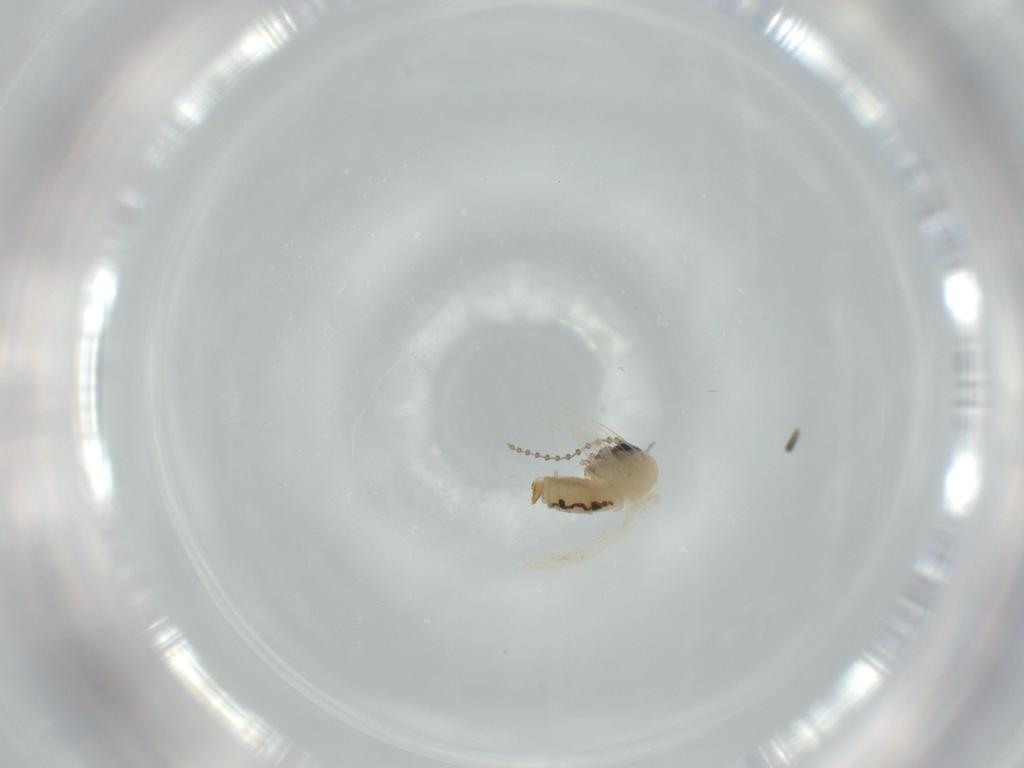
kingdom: Animalia
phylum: Arthropoda
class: Insecta
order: Diptera
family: Psychodidae
